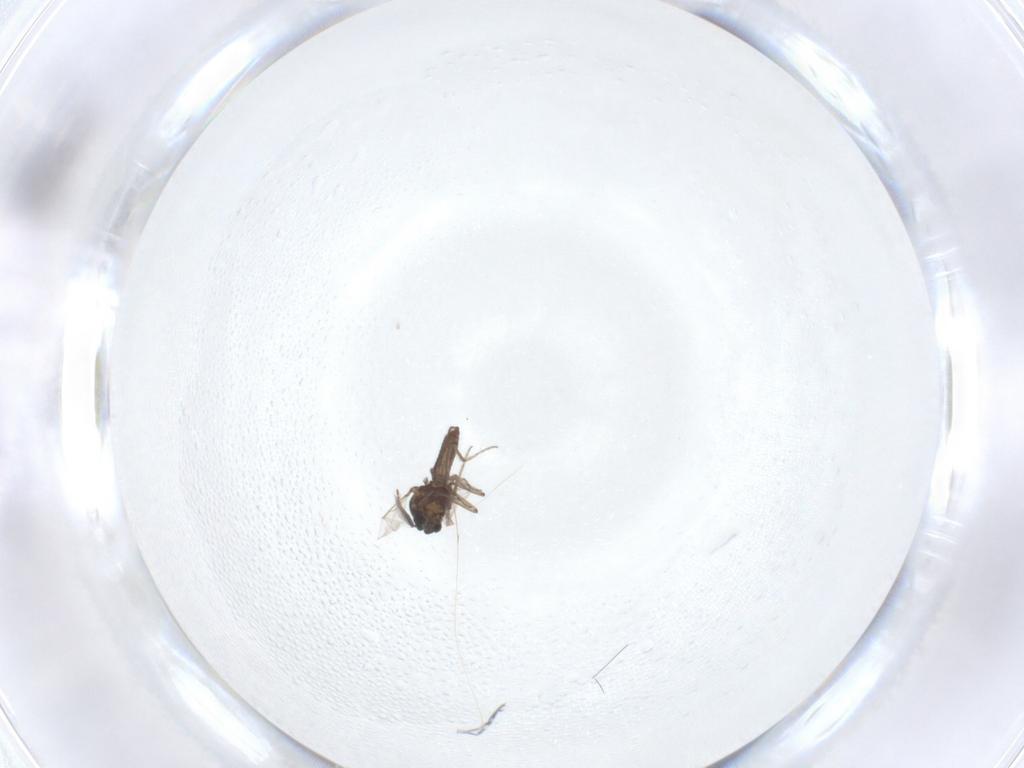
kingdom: Animalia
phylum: Arthropoda
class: Insecta
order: Diptera
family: Ceratopogonidae
